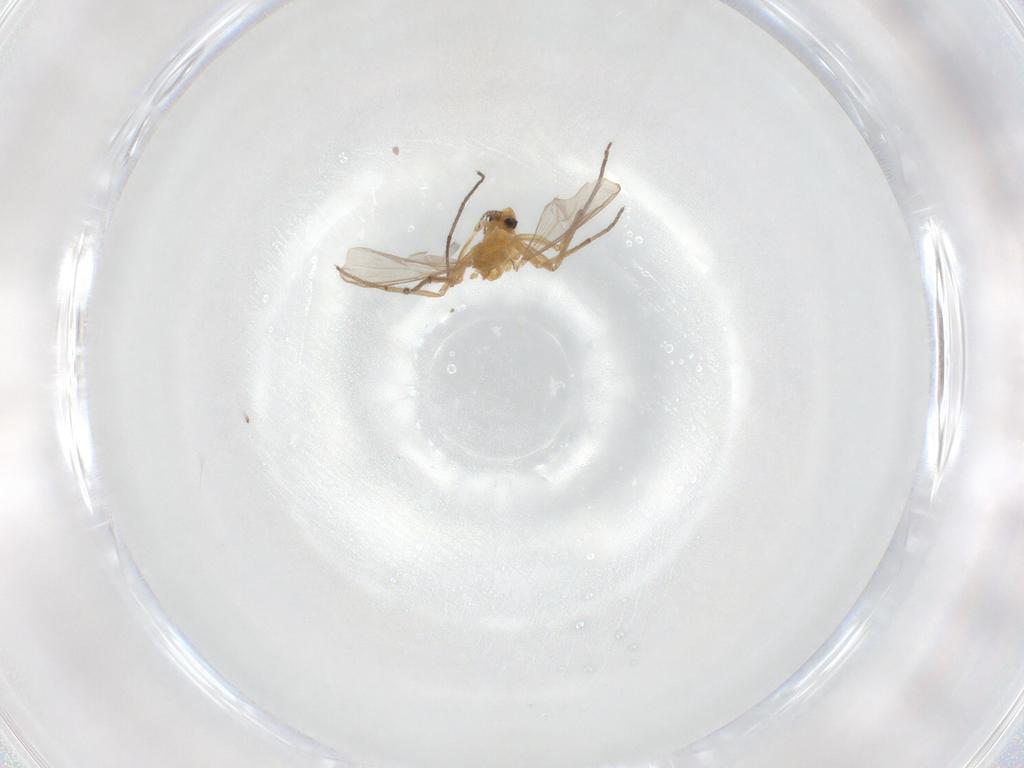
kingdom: Animalia
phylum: Arthropoda
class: Insecta
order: Diptera
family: Chironomidae
